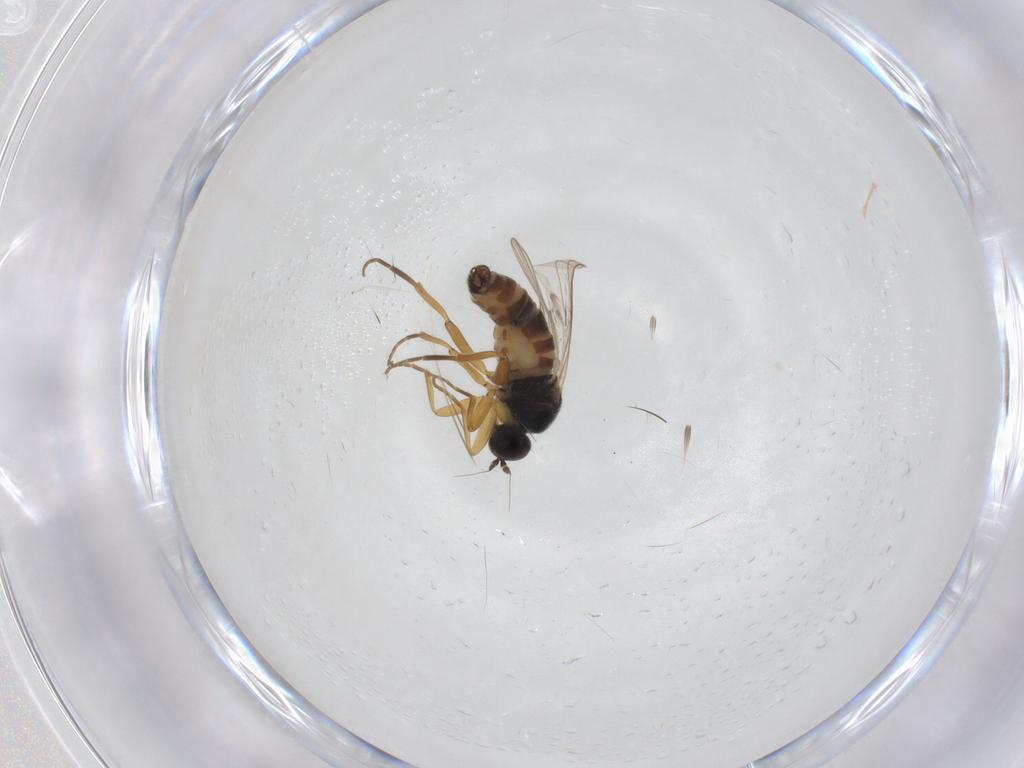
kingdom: Animalia
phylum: Arthropoda
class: Insecta
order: Diptera
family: Hybotidae
